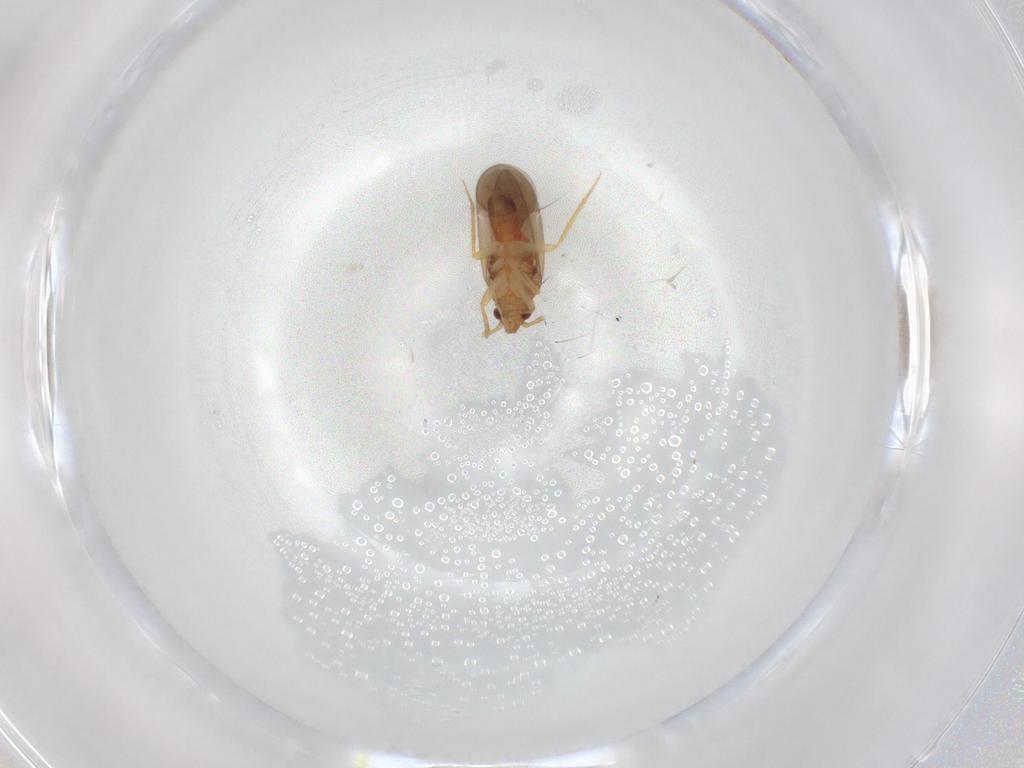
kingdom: Animalia
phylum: Arthropoda
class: Insecta
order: Hemiptera
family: Ceratocombidae
